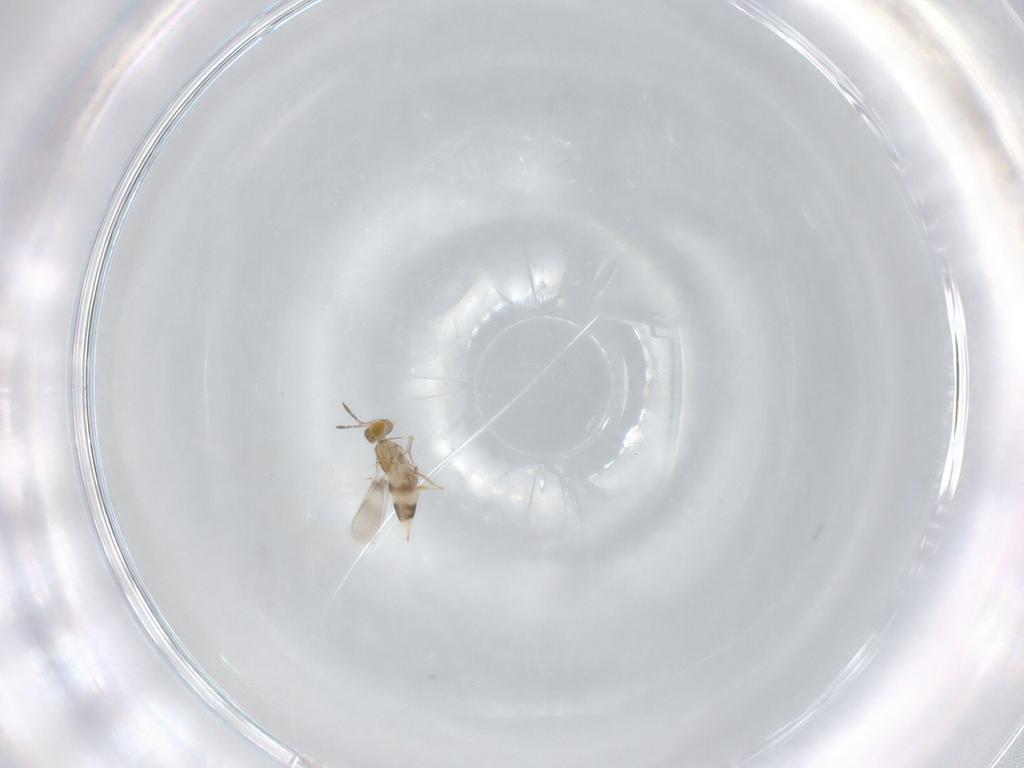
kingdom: Animalia
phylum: Arthropoda
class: Insecta
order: Hymenoptera
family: Aphelinidae
